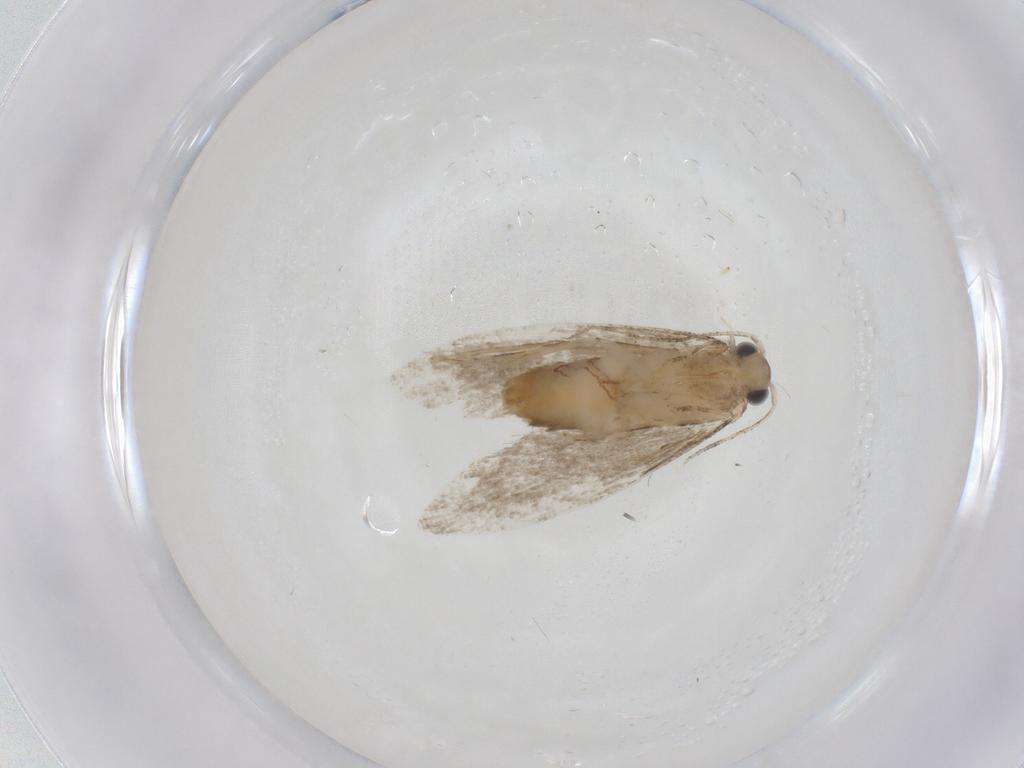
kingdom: Animalia
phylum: Arthropoda
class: Insecta
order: Lepidoptera
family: Tineidae
